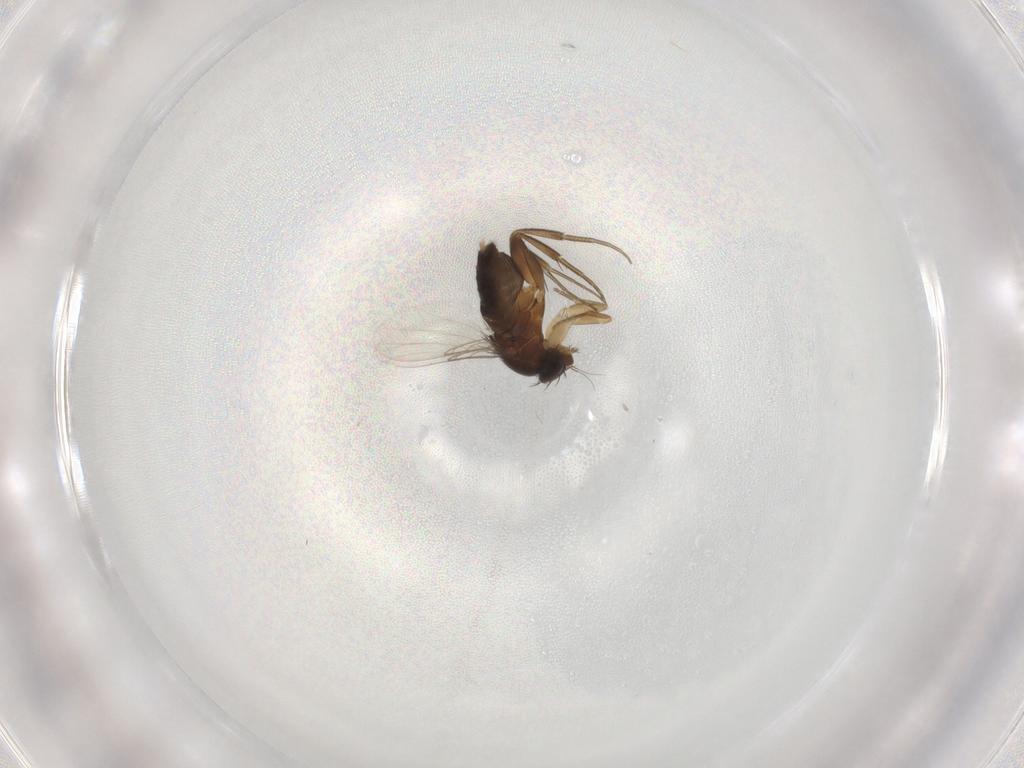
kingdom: Animalia
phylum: Arthropoda
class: Insecta
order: Diptera
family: Phoridae
